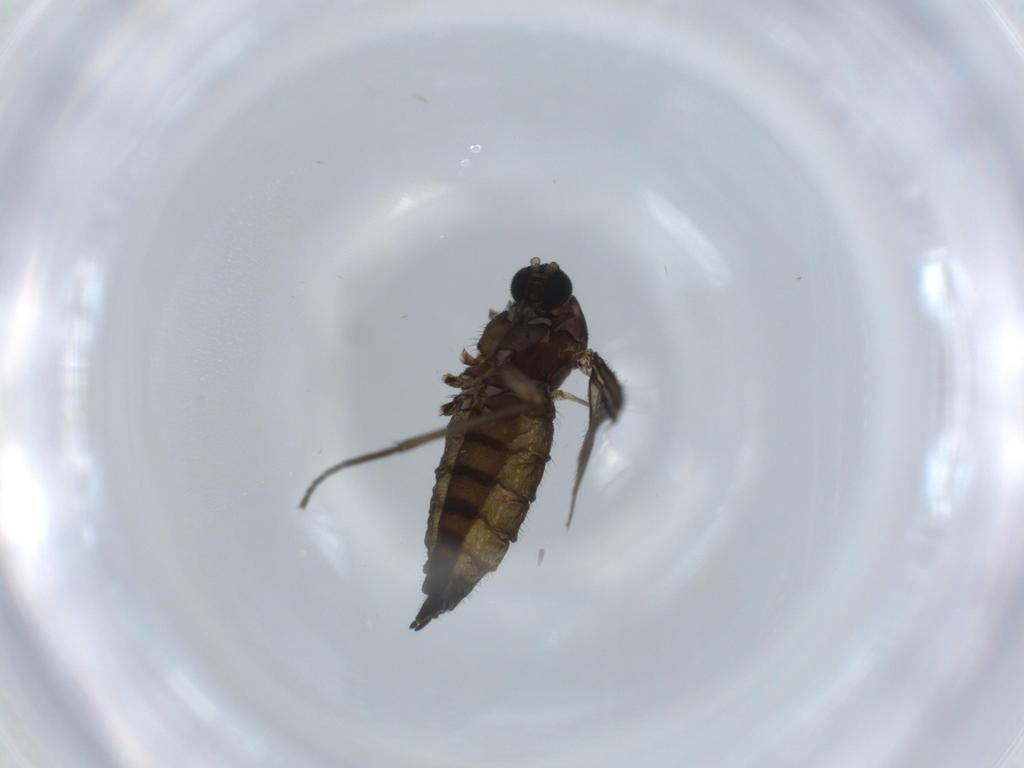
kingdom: Animalia
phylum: Arthropoda
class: Insecta
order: Diptera
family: Sciaridae
